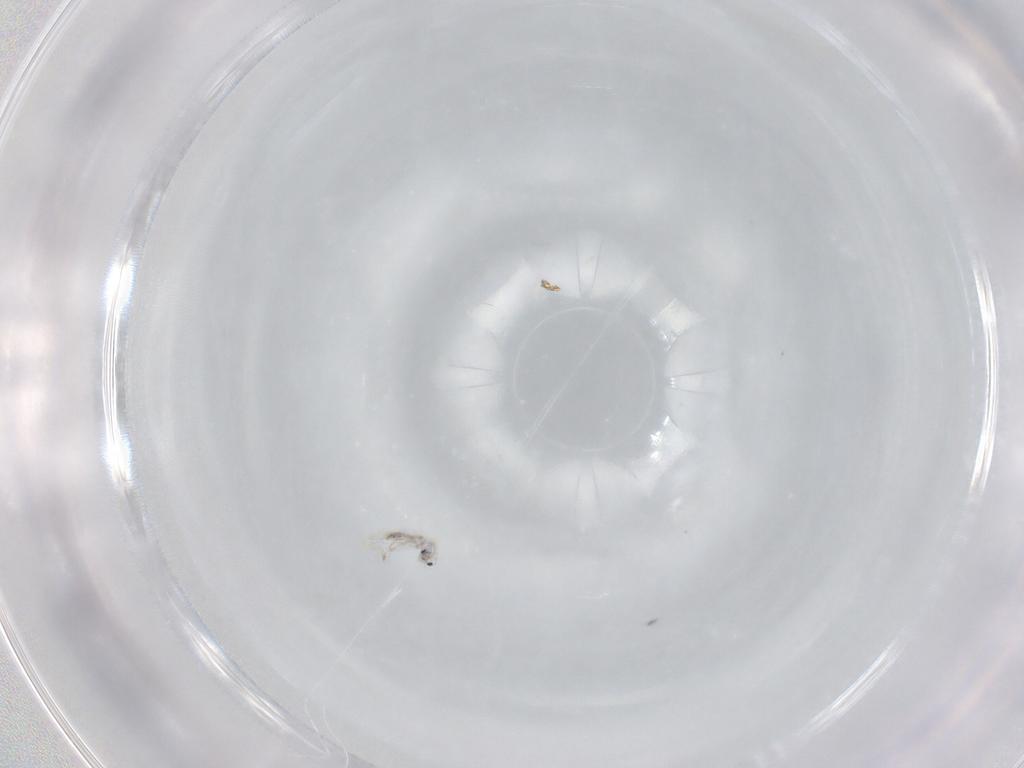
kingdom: Animalia
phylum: Arthropoda
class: Collembola
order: Entomobryomorpha
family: Entomobryidae
